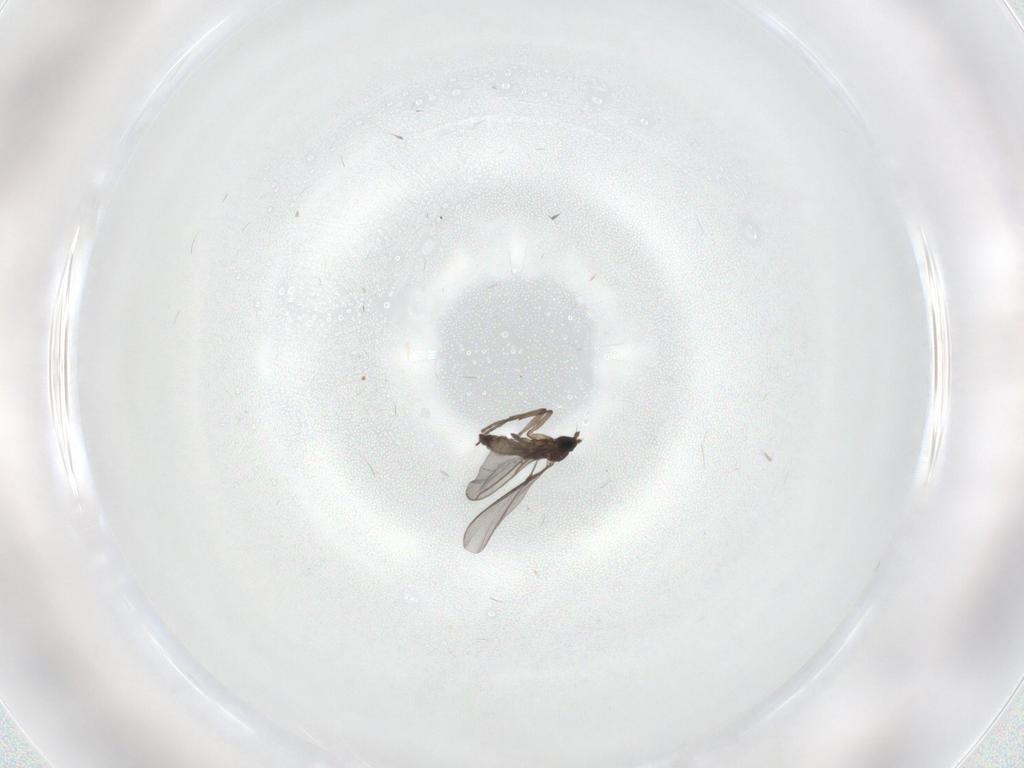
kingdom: Animalia
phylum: Arthropoda
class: Insecta
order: Diptera
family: Sciaridae
